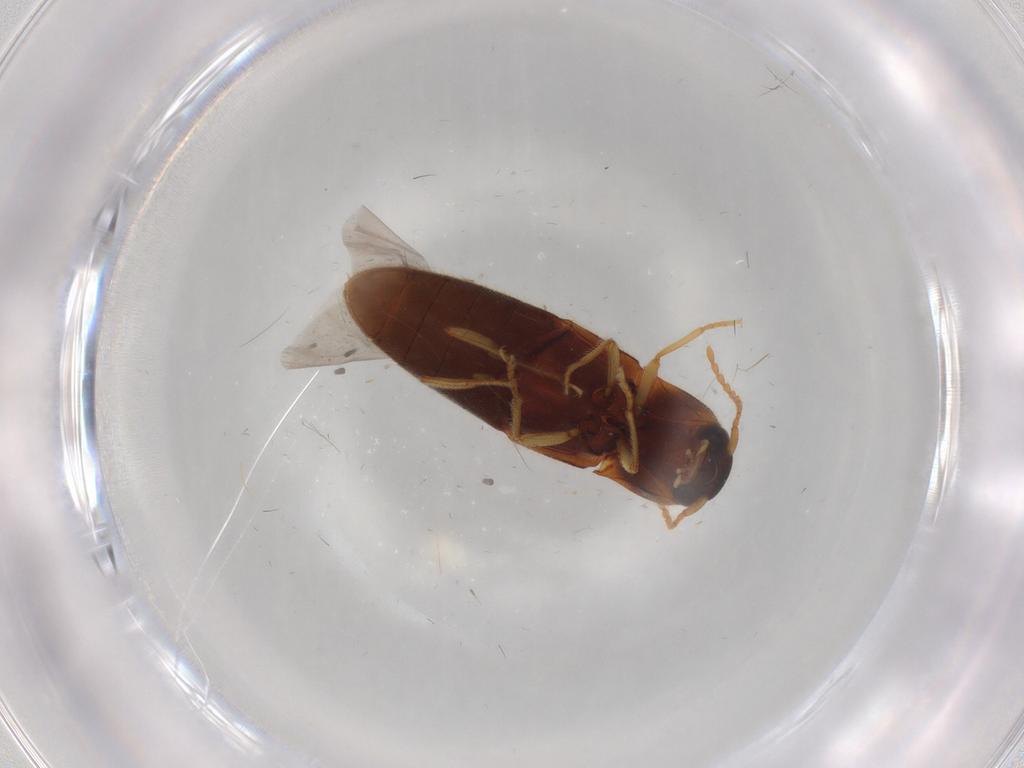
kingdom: Animalia
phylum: Arthropoda
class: Insecta
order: Coleoptera
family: Elateridae
